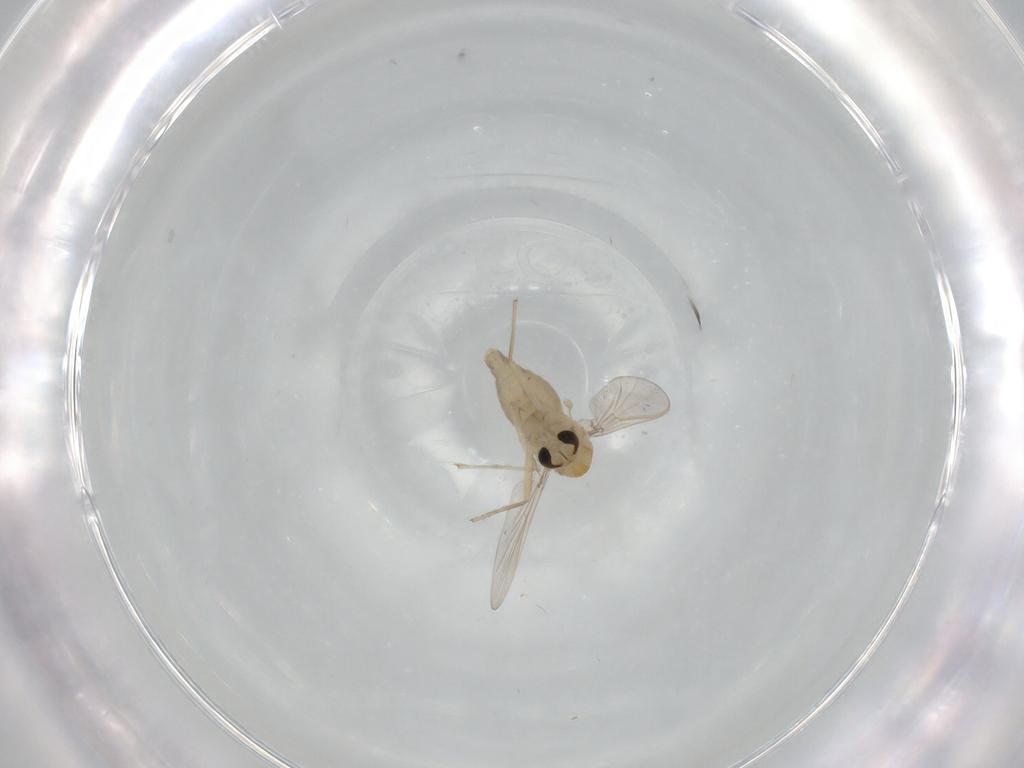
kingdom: Animalia
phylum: Arthropoda
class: Insecta
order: Diptera
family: Chironomidae
